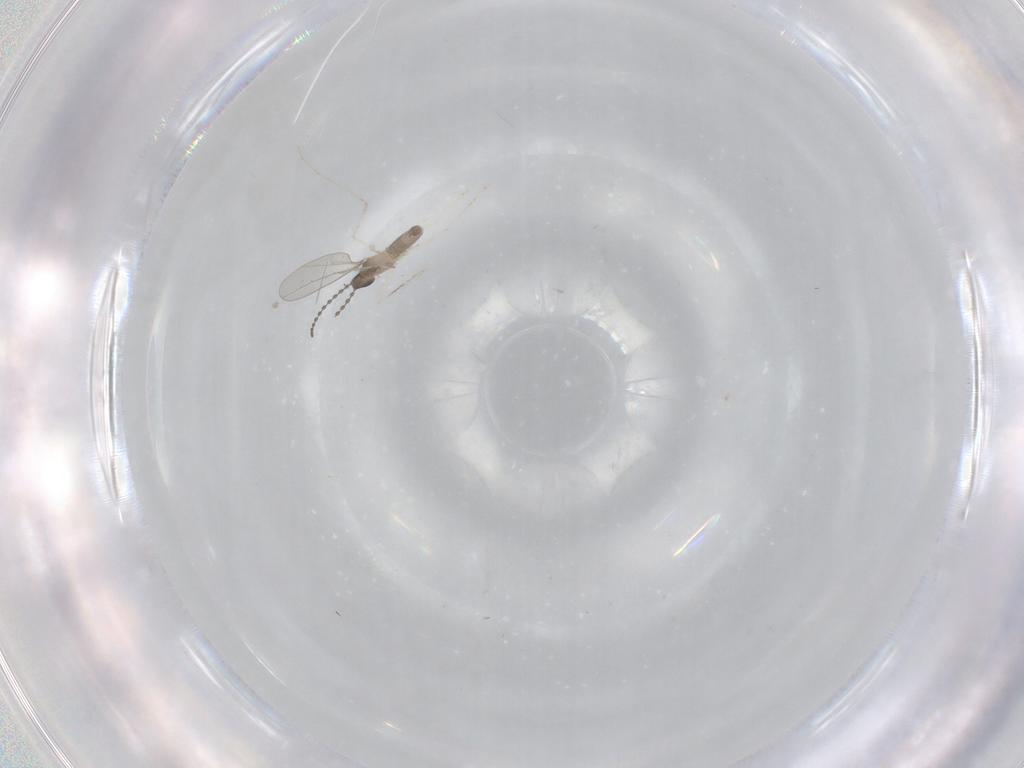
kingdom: Animalia
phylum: Arthropoda
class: Insecta
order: Diptera
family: Cecidomyiidae
